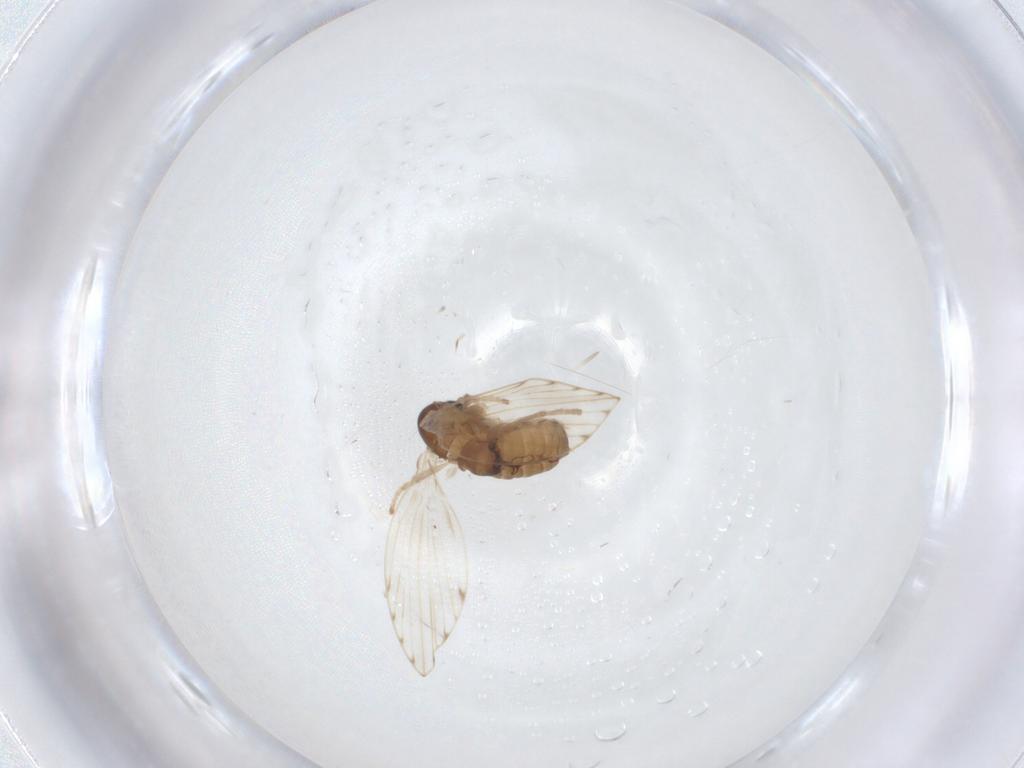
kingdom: Animalia
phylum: Arthropoda
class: Insecta
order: Diptera
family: Psychodidae
